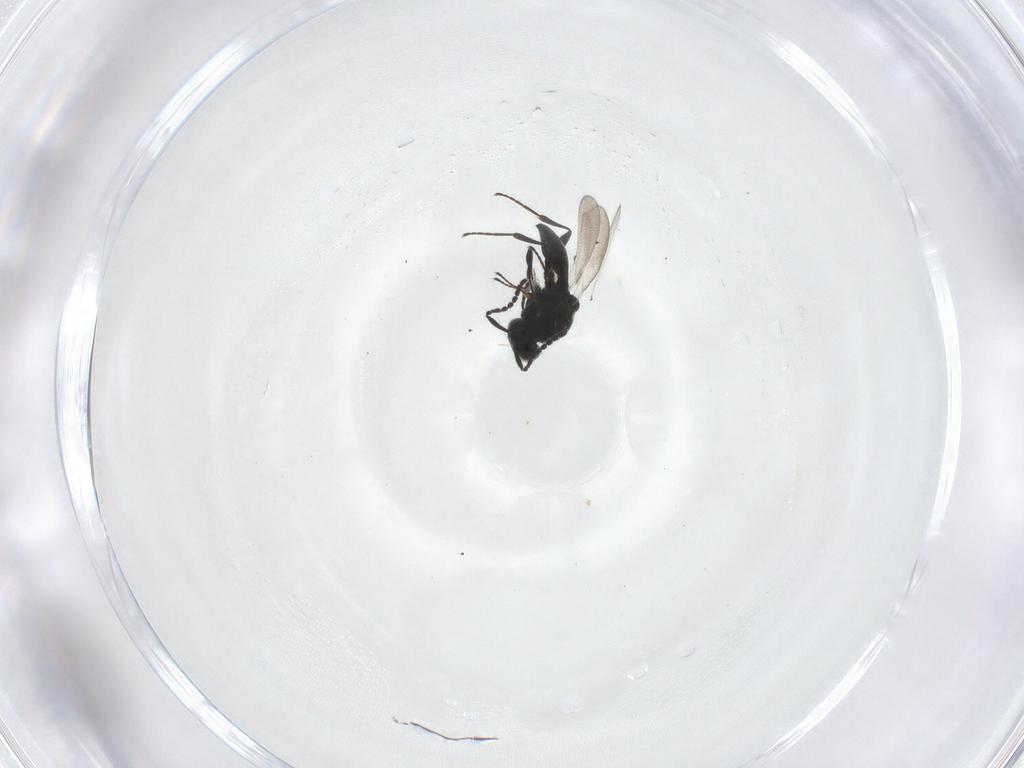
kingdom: Animalia
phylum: Arthropoda
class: Insecta
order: Hymenoptera
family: Platygastridae
